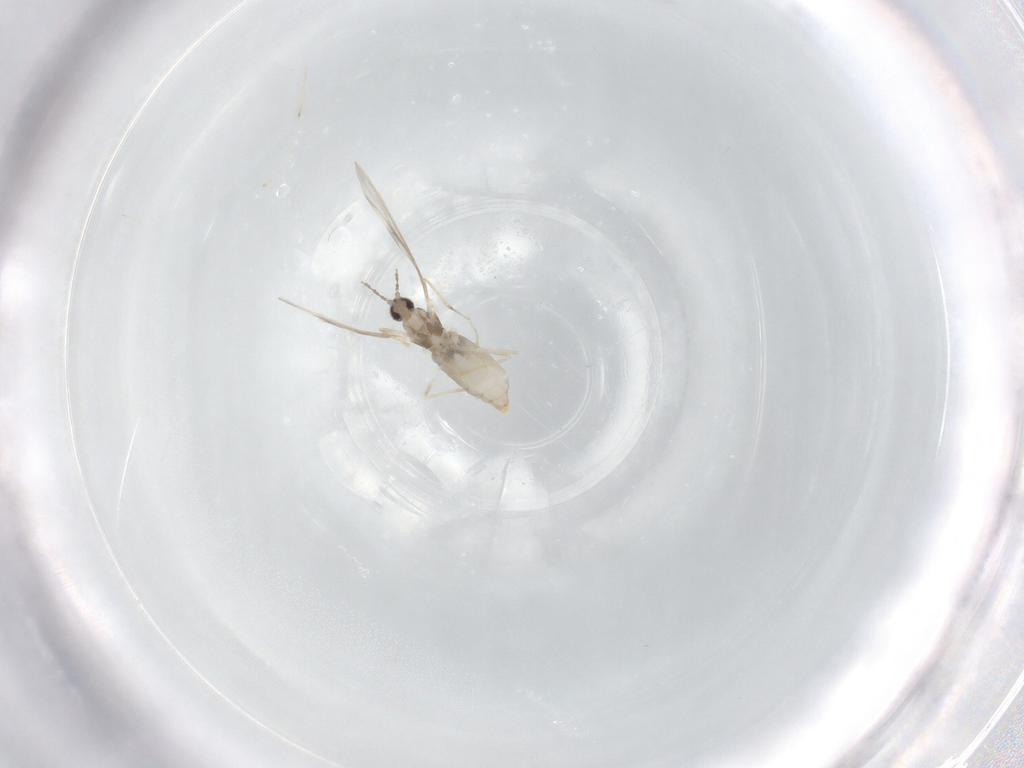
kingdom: Animalia
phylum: Arthropoda
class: Insecta
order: Diptera
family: Cecidomyiidae
